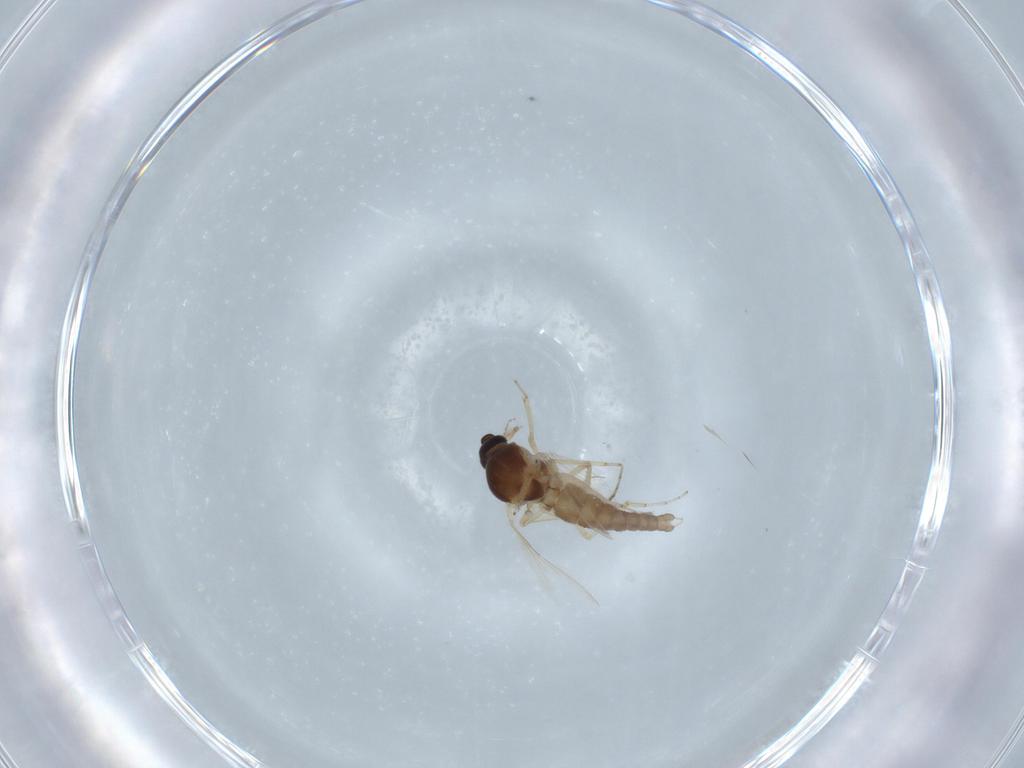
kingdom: Animalia
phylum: Arthropoda
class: Insecta
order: Diptera
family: Ceratopogonidae
